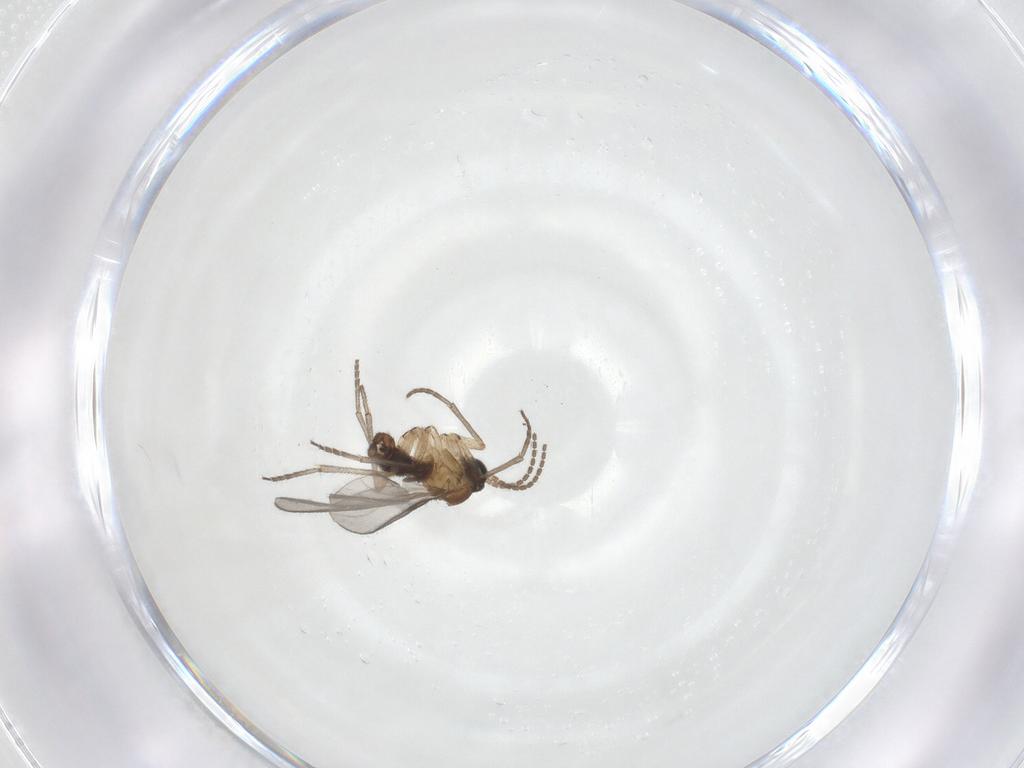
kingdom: Animalia
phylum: Arthropoda
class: Insecta
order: Diptera
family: Sciaridae
